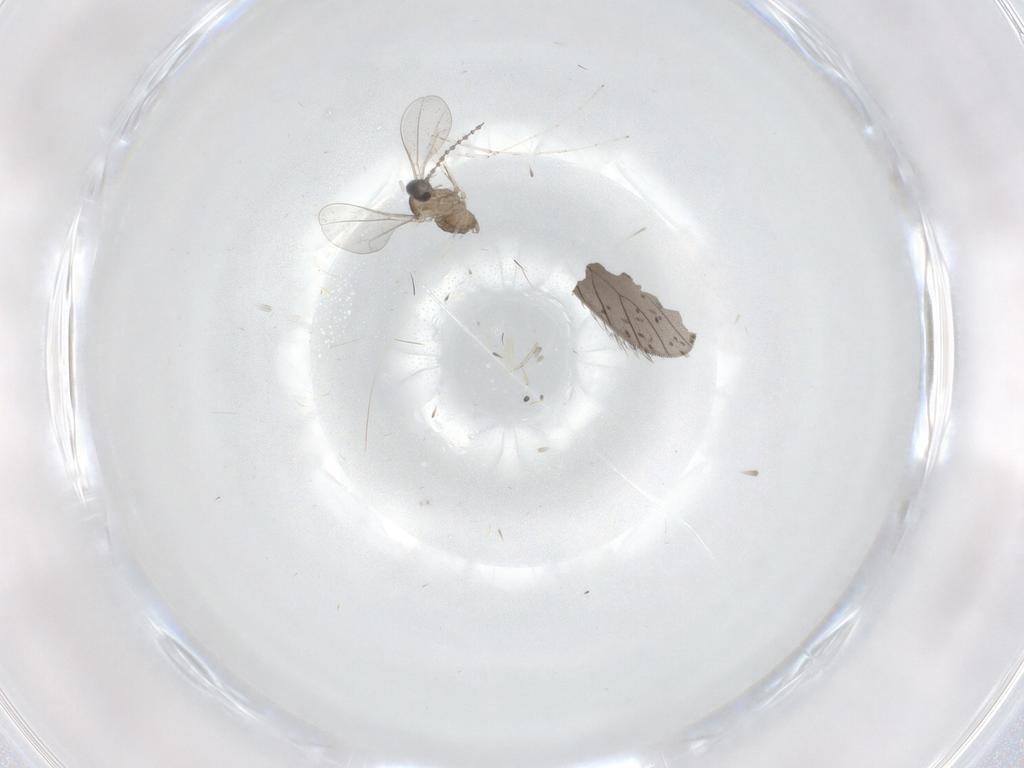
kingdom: Animalia
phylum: Arthropoda
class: Insecta
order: Diptera
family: Cecidomyiidae
